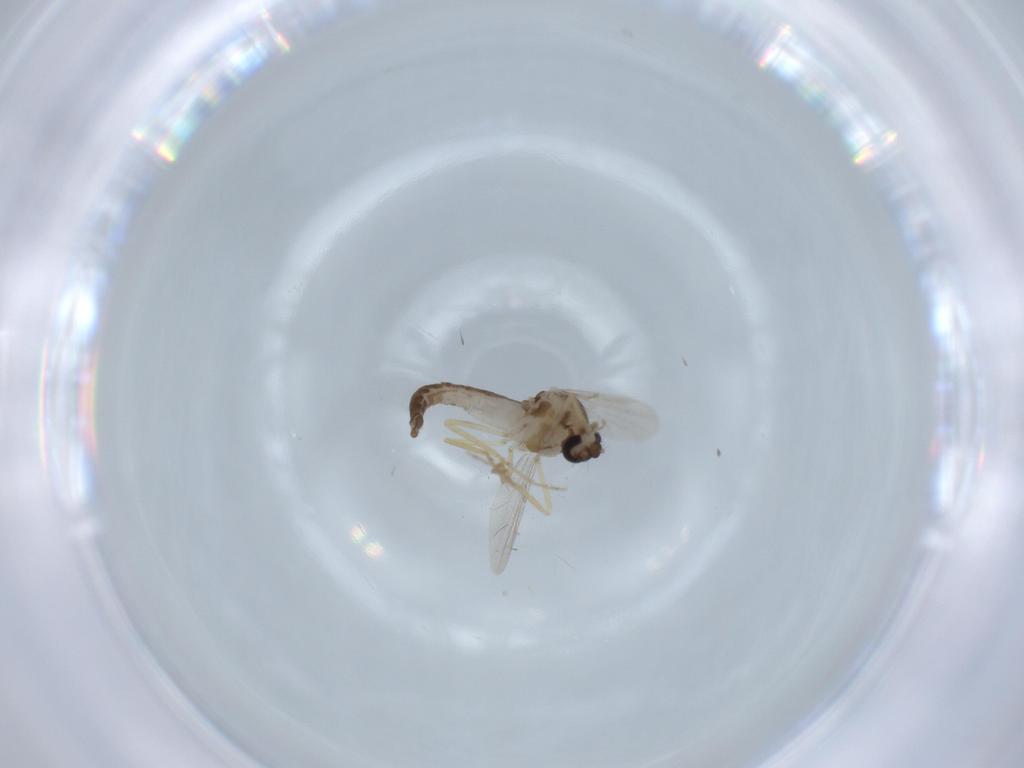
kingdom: Animalia
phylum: Arthropoda
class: Insecta
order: Diptera
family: Ceratopogonidae
